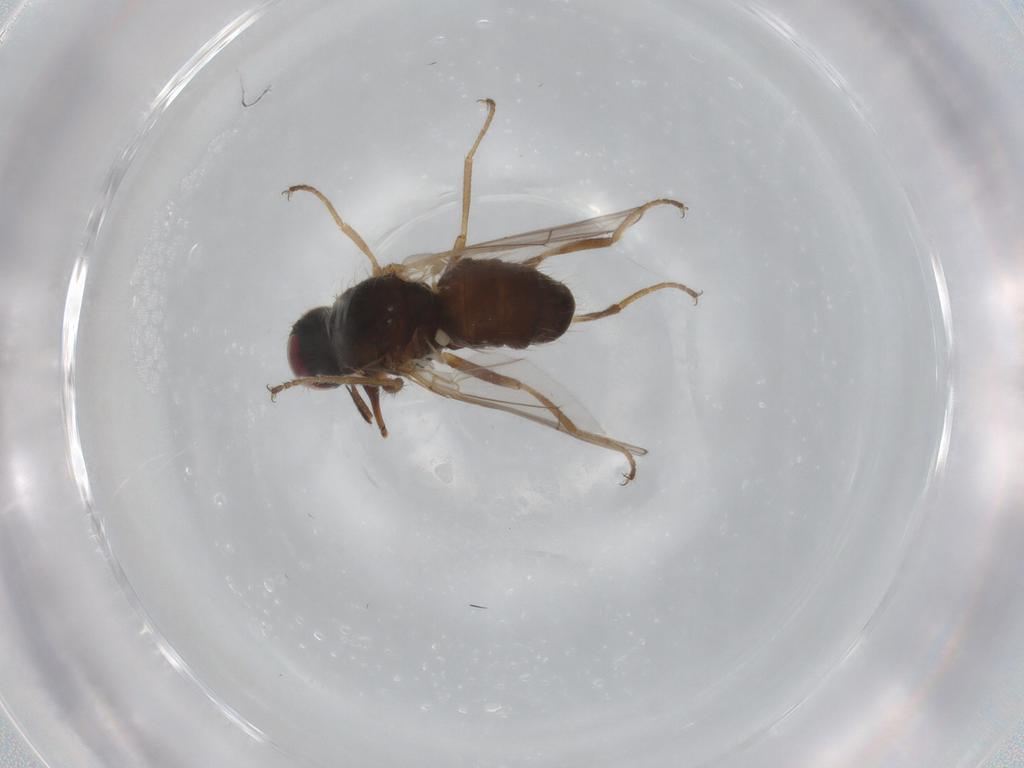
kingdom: Animalia
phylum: Arthropoda
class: Insecta
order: Diptera
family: Muscidae
